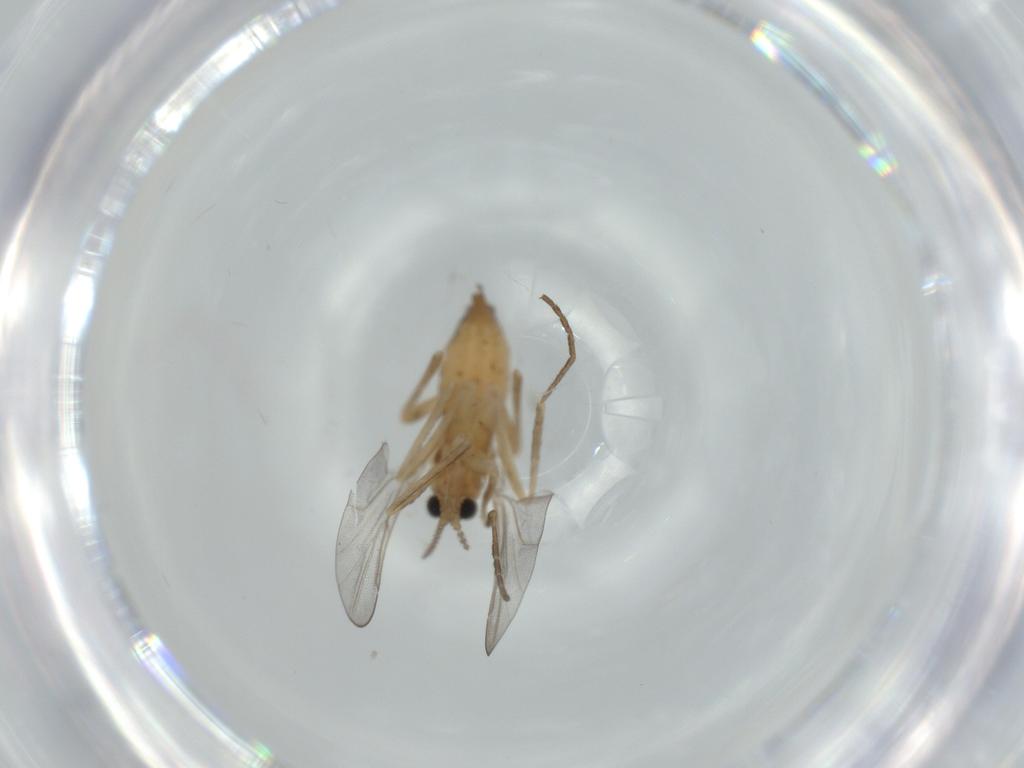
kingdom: Animalia
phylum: Arthropoda
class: Insecta
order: Diptera
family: Cecidomyiidae
